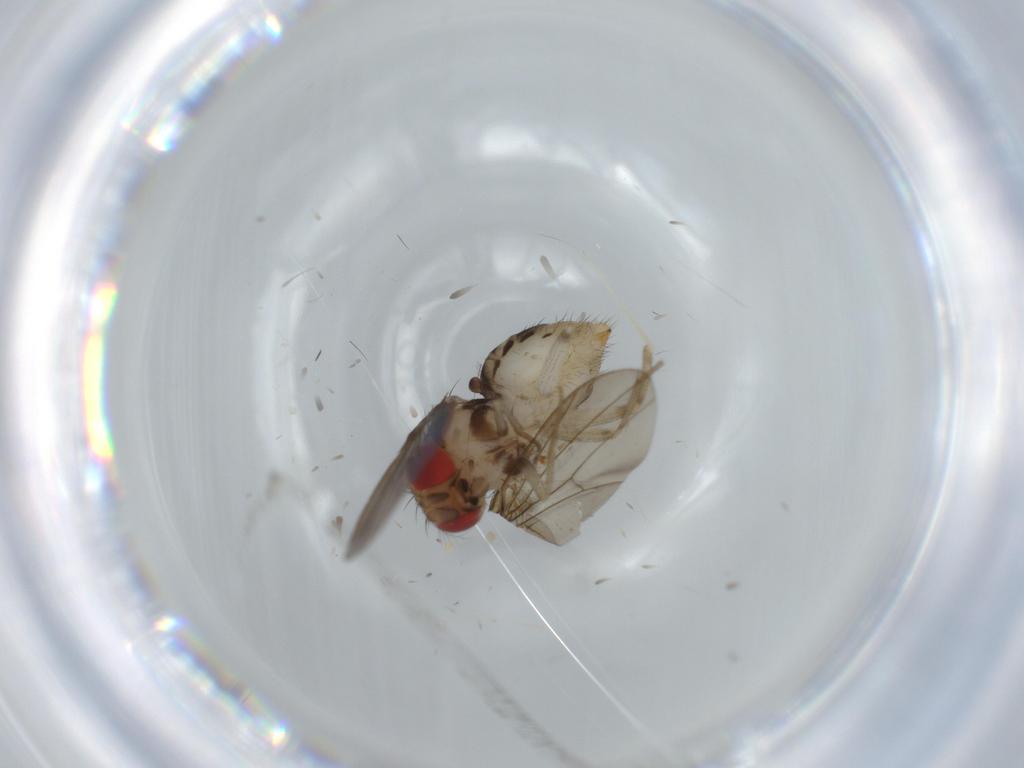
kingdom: Animalia
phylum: Arthropoda
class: Insecta
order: Diptera
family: Drosophilidae
